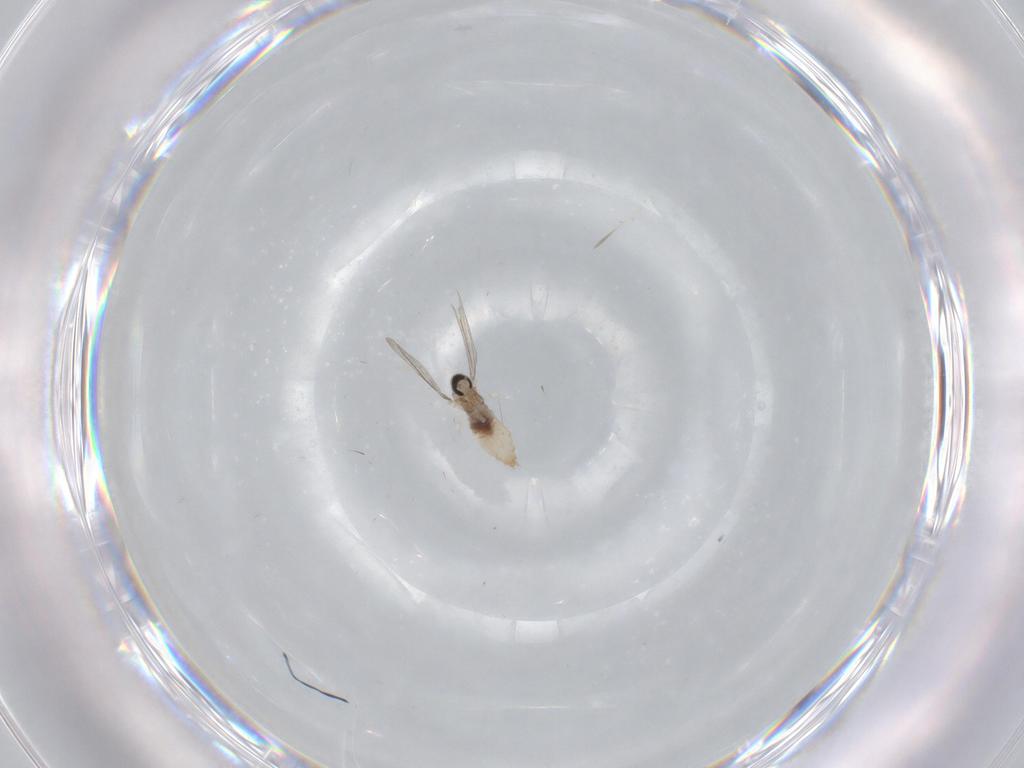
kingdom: Animalia
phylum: Arthropoda
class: Insecta
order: Diptera
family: Cecidomyiidae
